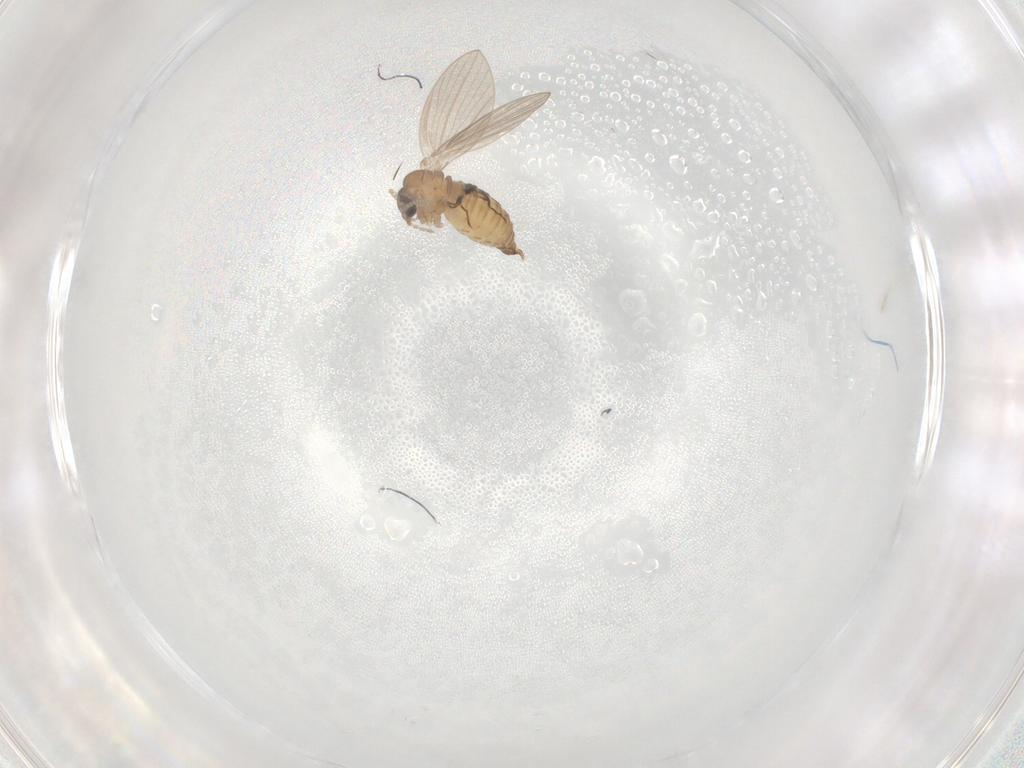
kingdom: Animalia
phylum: Arthropoda
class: Insecta
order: Diptera
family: Psychodidae
